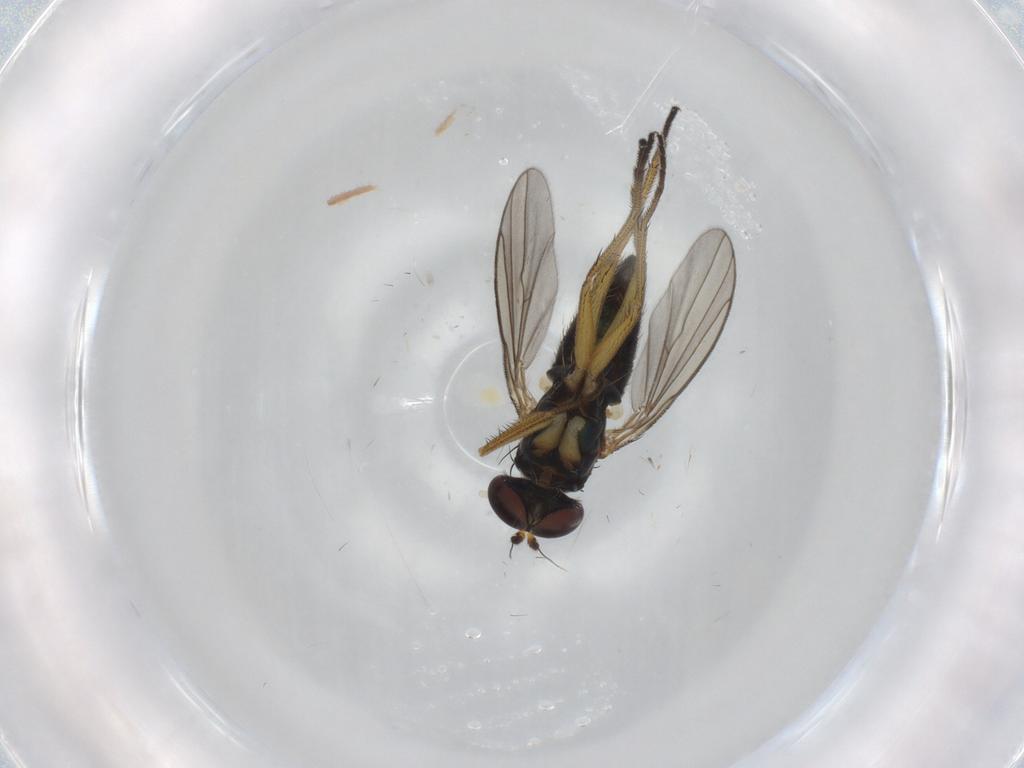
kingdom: Animalia
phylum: Arthropoda
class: Insecta
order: Diptera
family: Dolichopodidae
